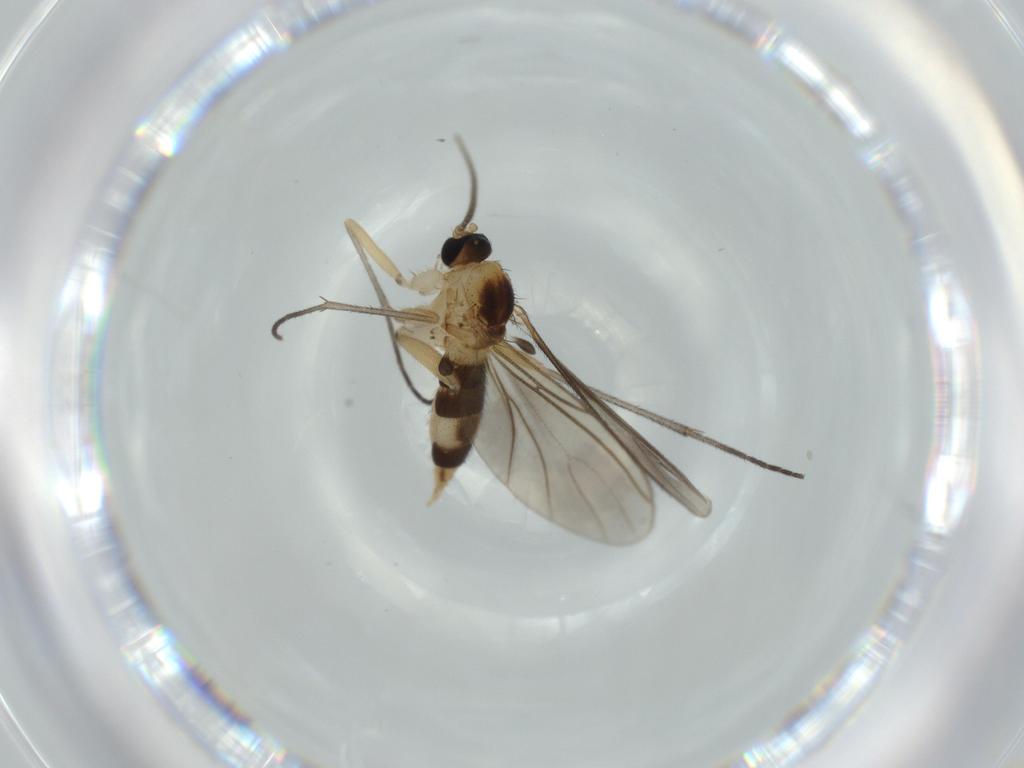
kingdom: Animalia
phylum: Arthropoda
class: Insecta
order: Diptera
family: Sciaridae
